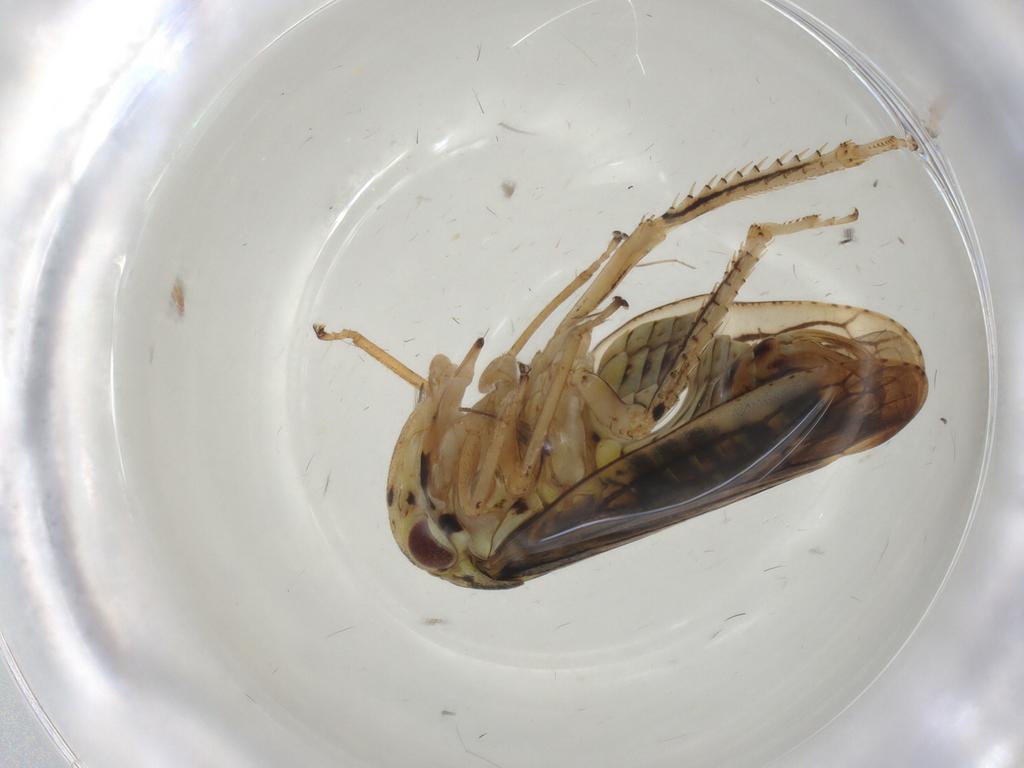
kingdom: Animalia
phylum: Arthropoda
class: Insecta
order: Hemiptera
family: Cicadellidae
